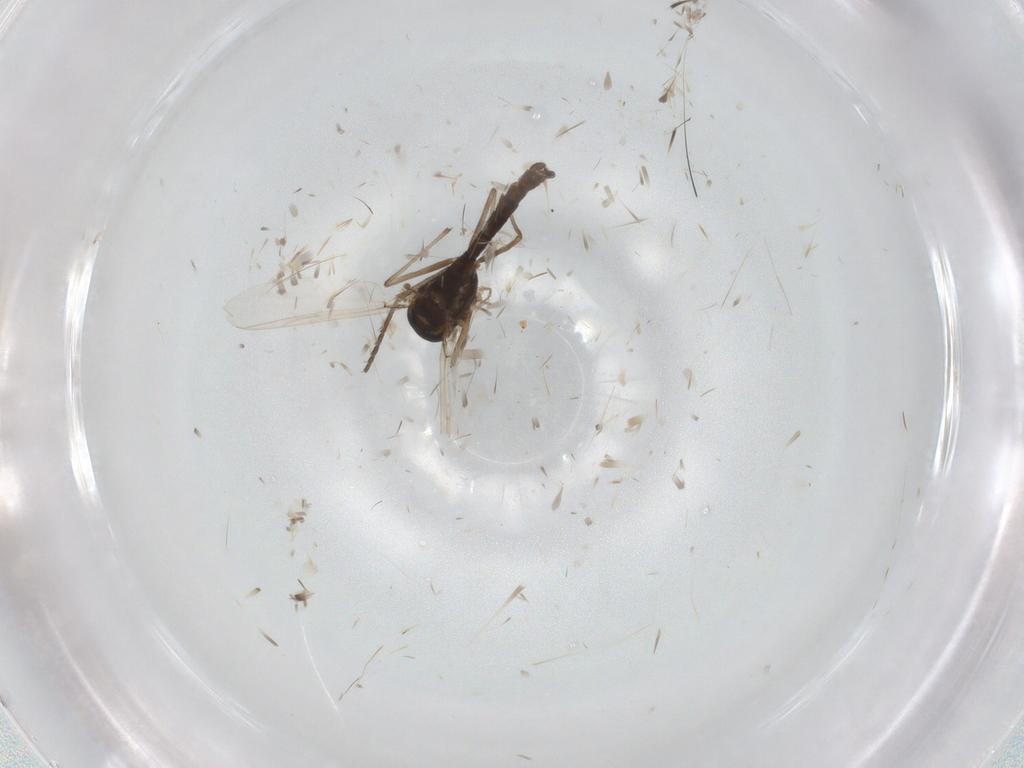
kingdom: Animalia
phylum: Arthropoda
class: Insecta
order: Diptera
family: Chironomidae
